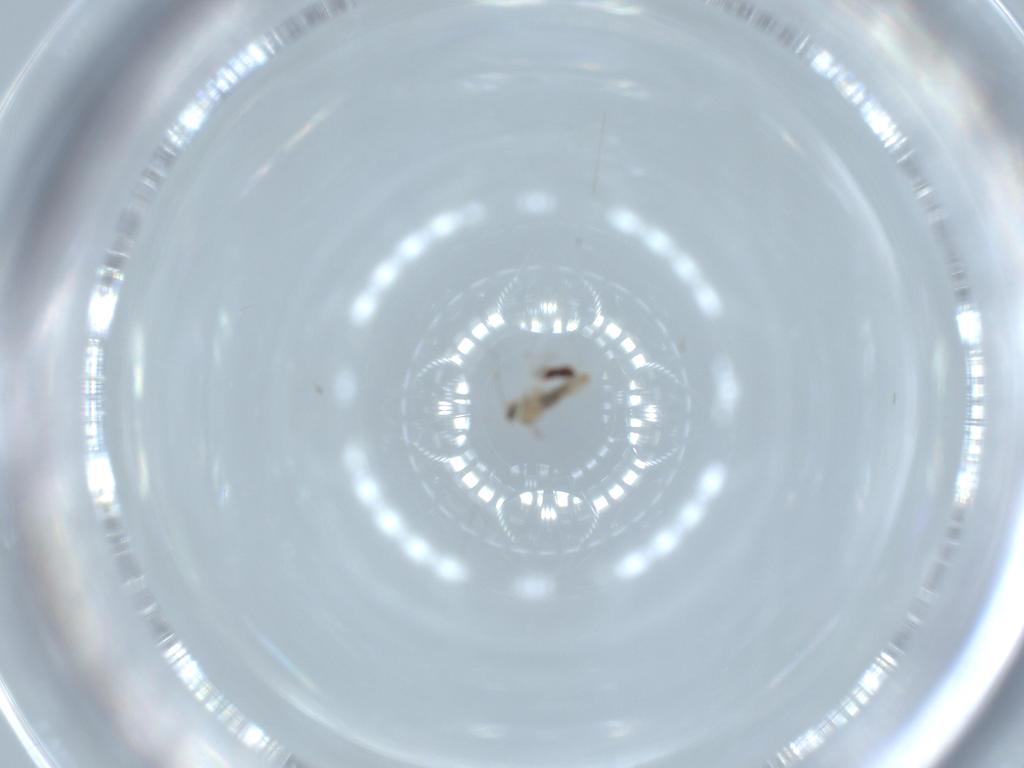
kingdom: Animalia
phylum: Arthropoda
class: Insecta
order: Diptera
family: Cecidomyiidae
